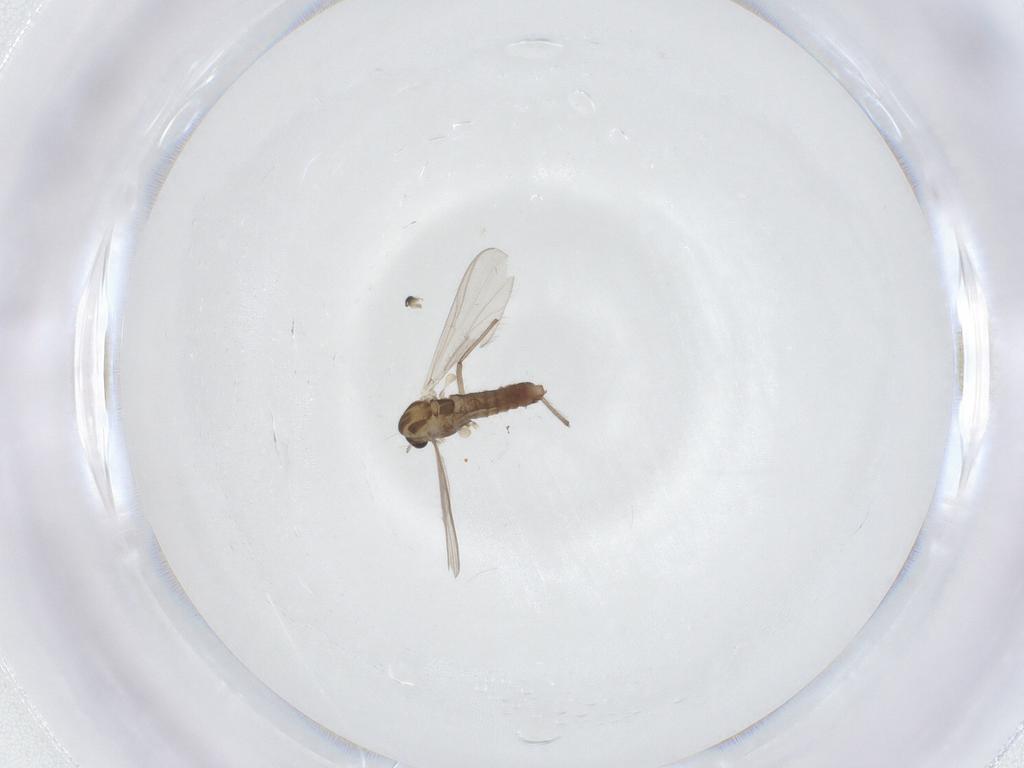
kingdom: Animalia
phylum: Arthropoda
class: Insecta
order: Diptera
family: Chironomidae
